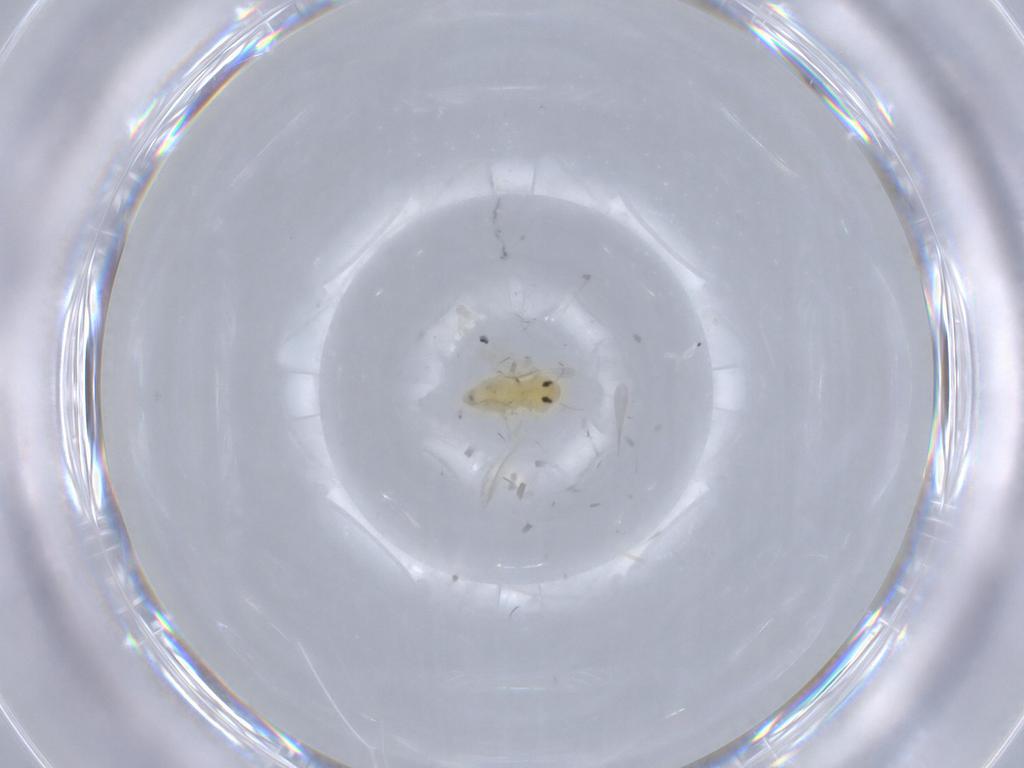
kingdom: Animalia
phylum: Arthropoda
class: Insecta
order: Hemiptera
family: Aleyrodidae
